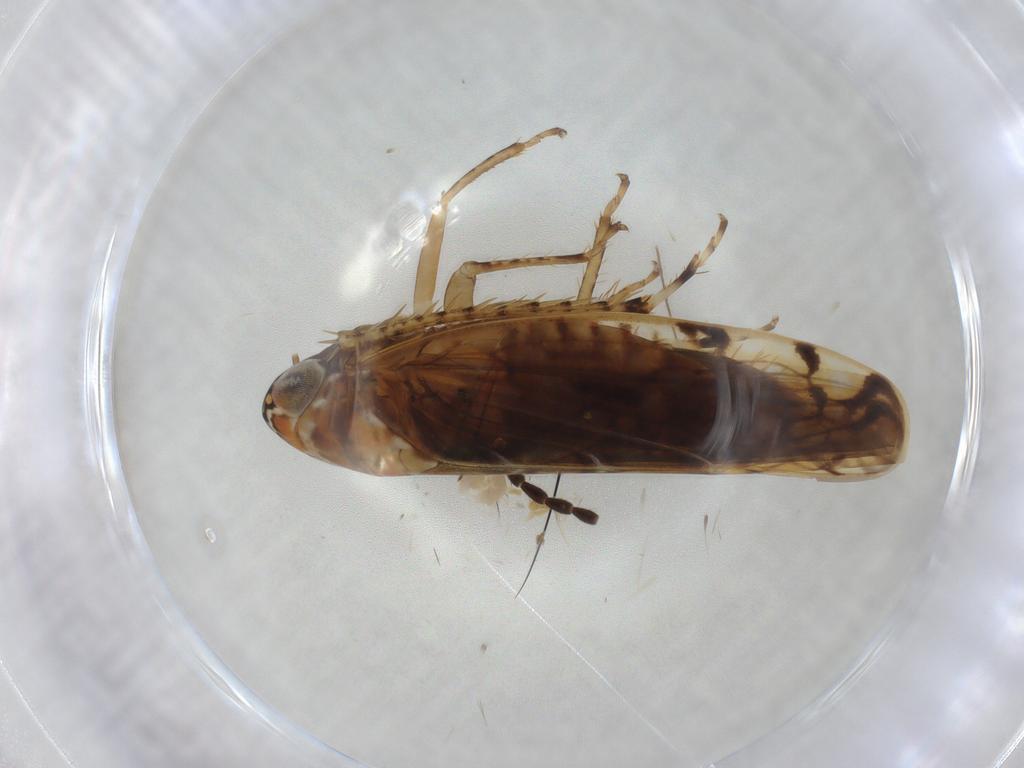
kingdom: Animalia
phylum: Arthropoda
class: Insecta
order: Hemiptera
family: Cicadellidae
